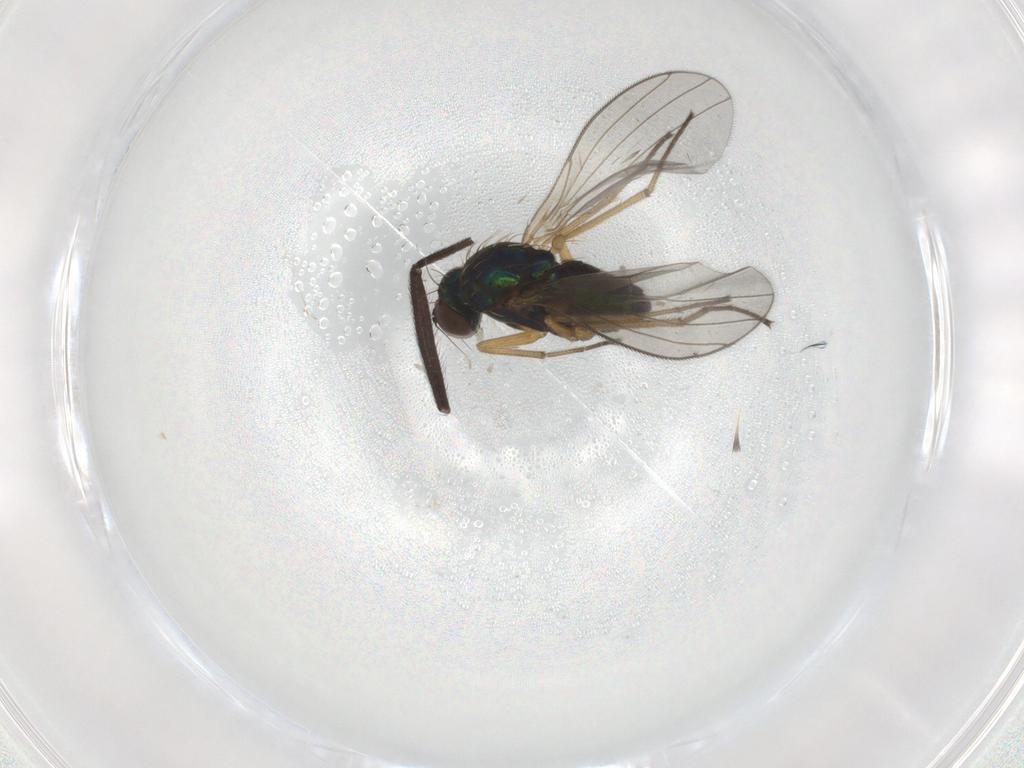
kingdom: Animalia
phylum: Arthropoda
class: Insecta
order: Diptera
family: Dolichopodidae
